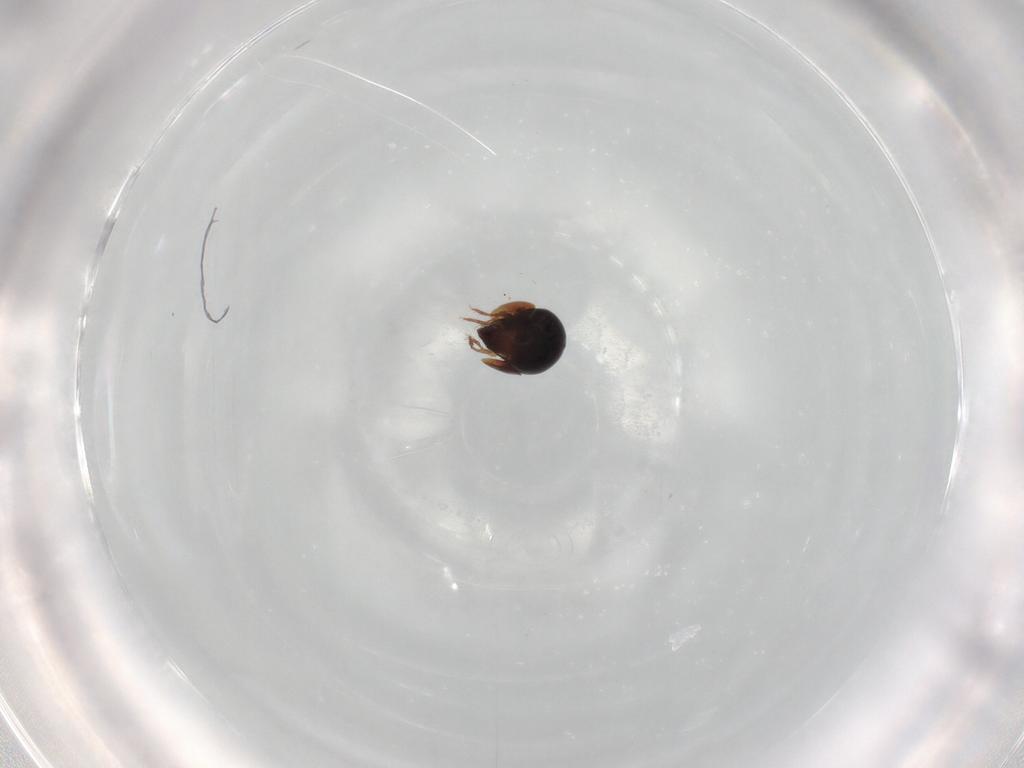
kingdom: Animalia
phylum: Arthropoda
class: Arachnida
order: Sarcoptiformes
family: Ceratozetidae
